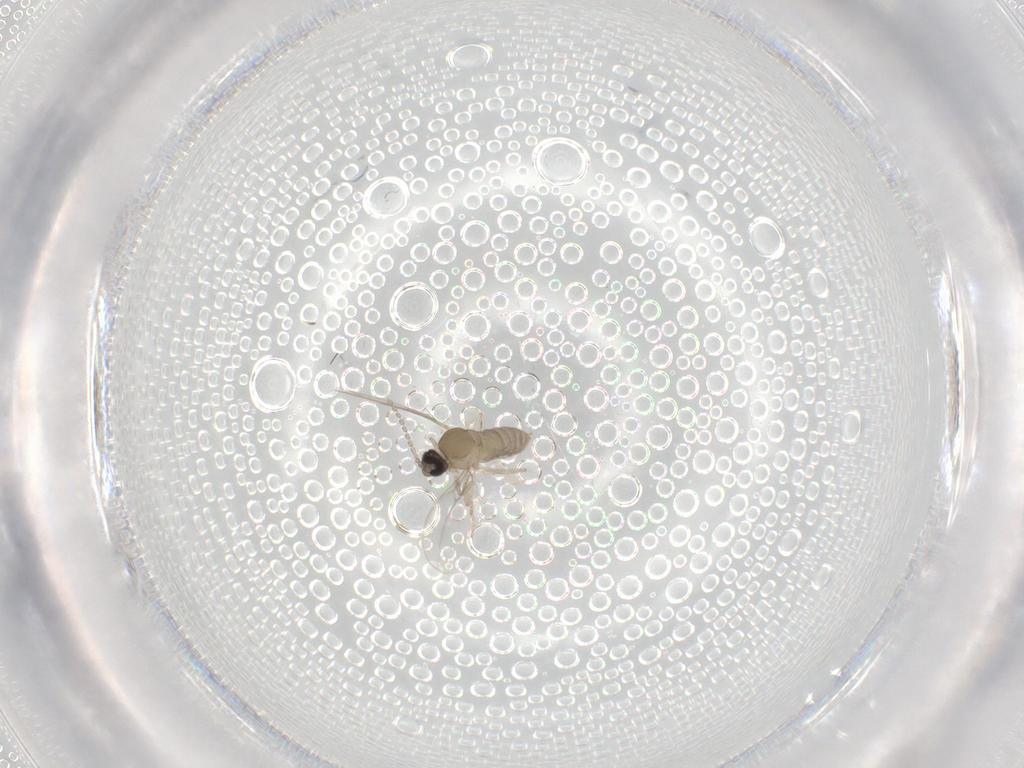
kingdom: Animalia
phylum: Arthropoda
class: Insecta
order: Diptera
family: Cecidomyiidae
